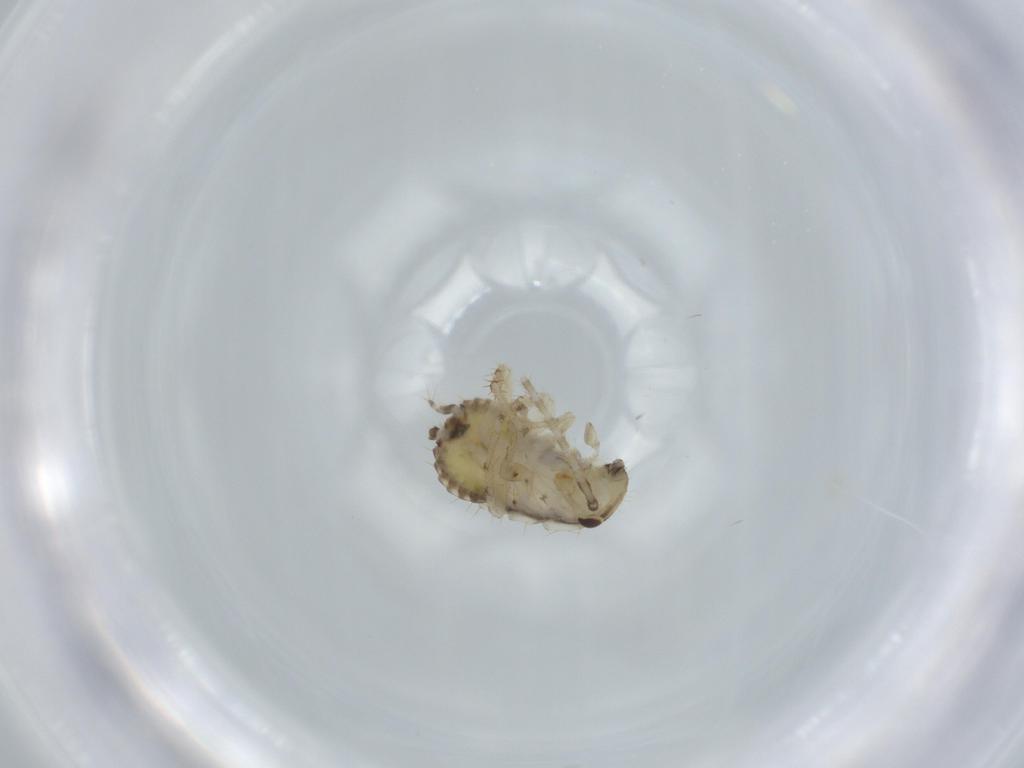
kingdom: Animalia
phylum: Arthropoda
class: Insecta
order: Blattodea
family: Ectobiidae
